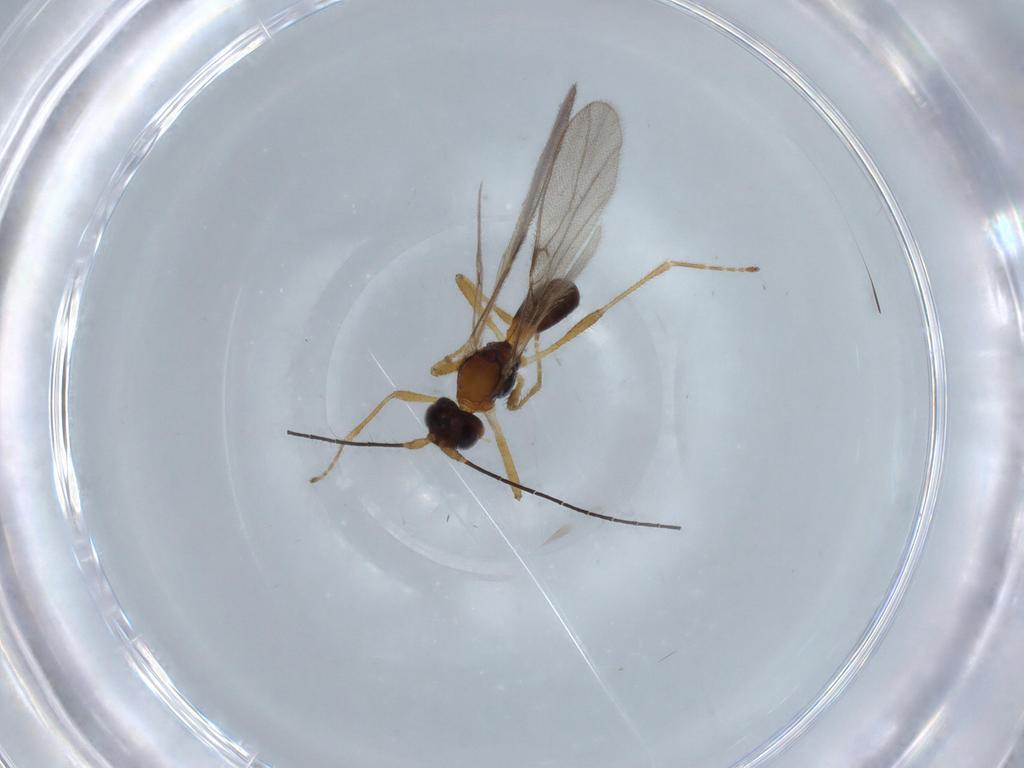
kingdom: Animalia
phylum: Arthropoda
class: Insecta
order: Hymenoptera
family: Braconidae
